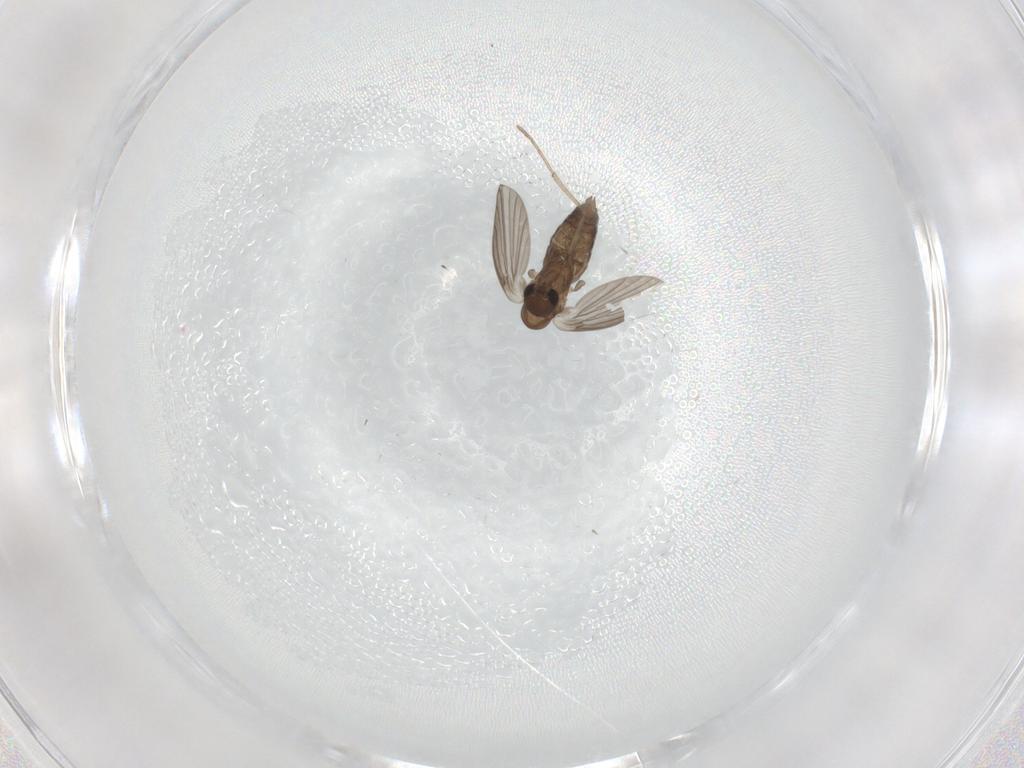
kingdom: Animalia
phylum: Arthropoda
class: Insecta
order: Diptera
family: Psychodidae
